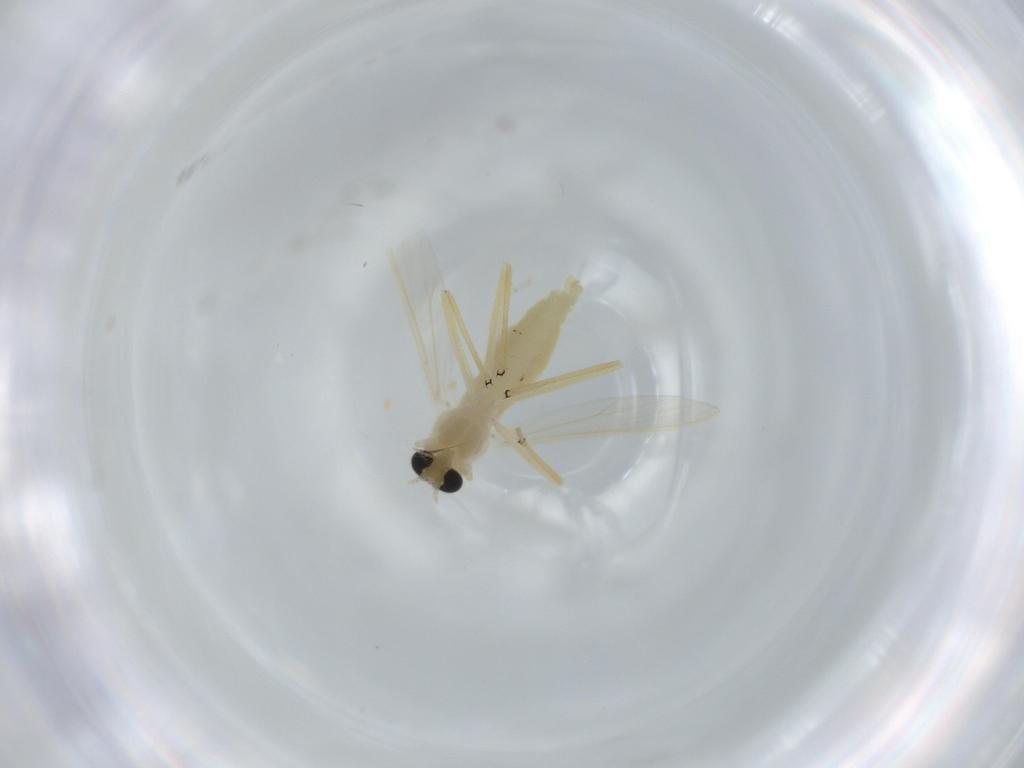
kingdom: Animalia
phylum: Arthropoda
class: Insecta
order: Diptera
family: Chironomidae
